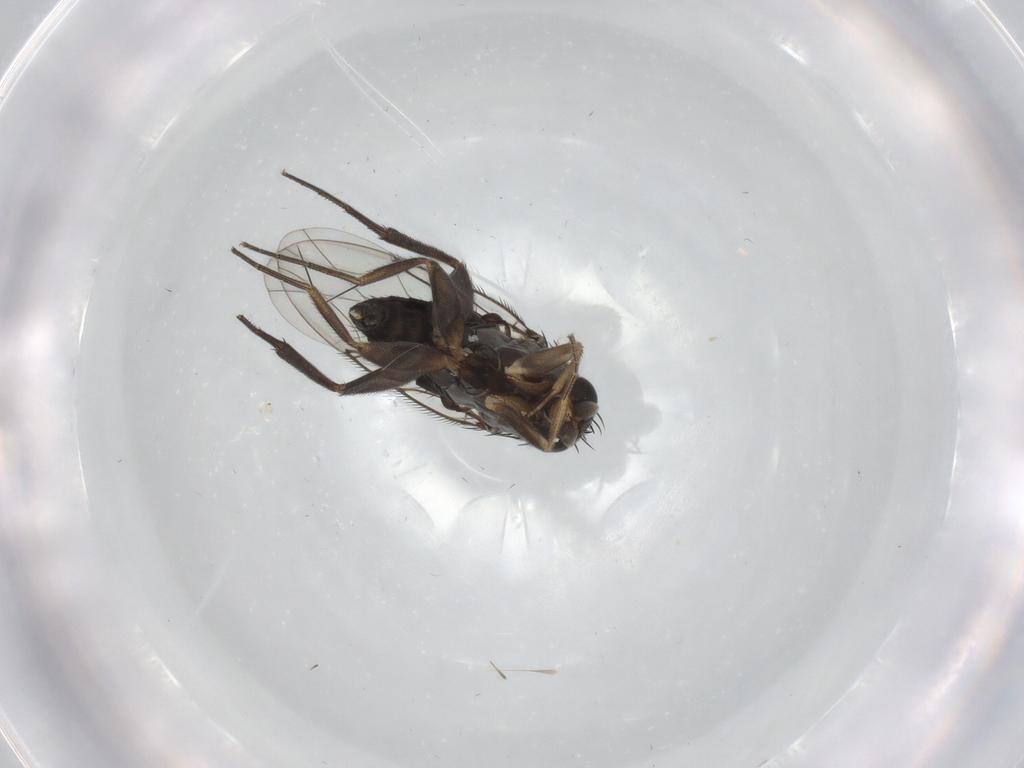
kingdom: Animalia
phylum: Arthropoda
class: Insecta
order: Diptera
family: Phoridae
